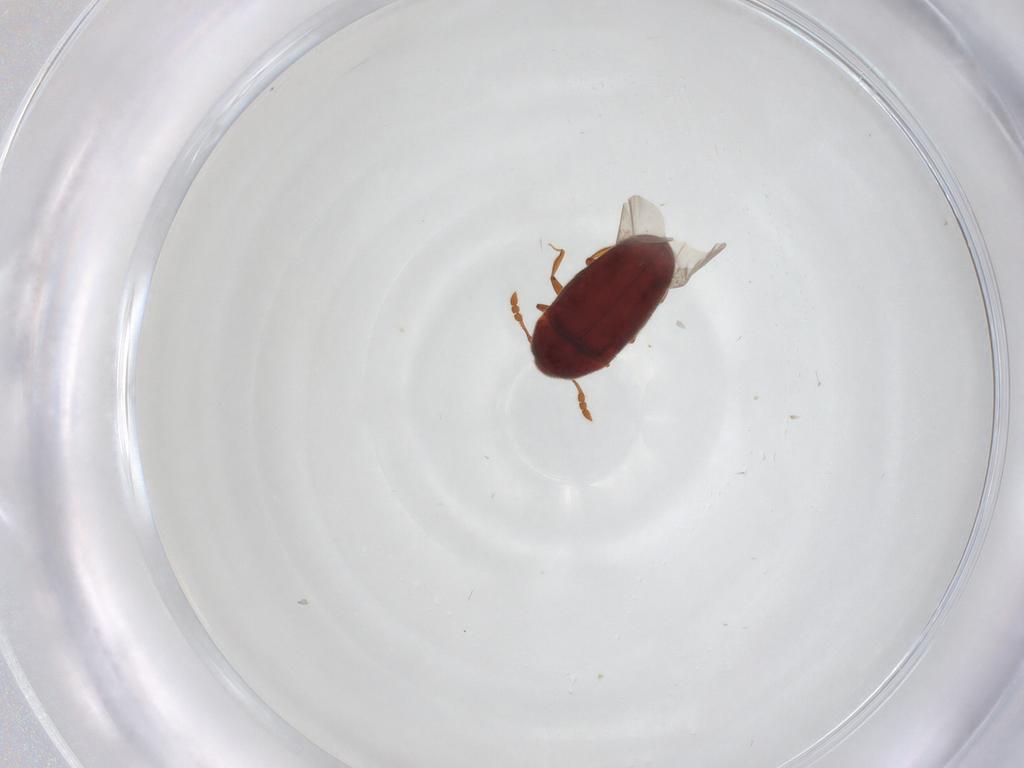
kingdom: Animalia
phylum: Arthropoda
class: Insecta
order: Coleoptera
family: Throscidae
